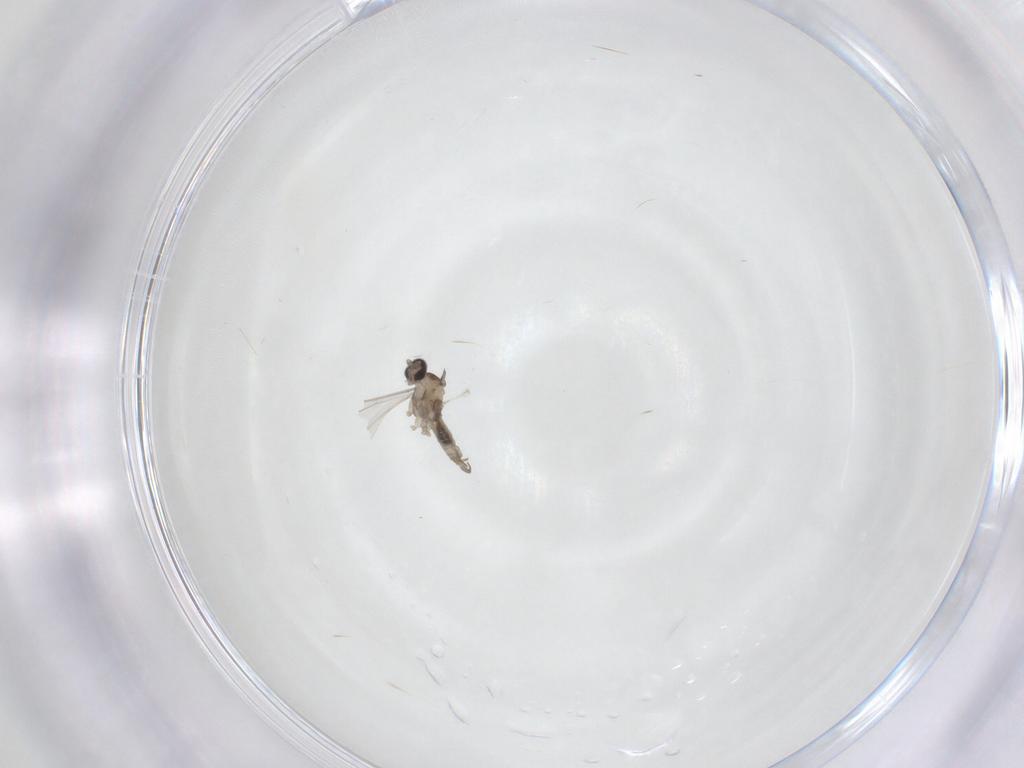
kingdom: Animalia
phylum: Arthropoda
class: Insecta
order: Diptera
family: Cecidomyiidae
